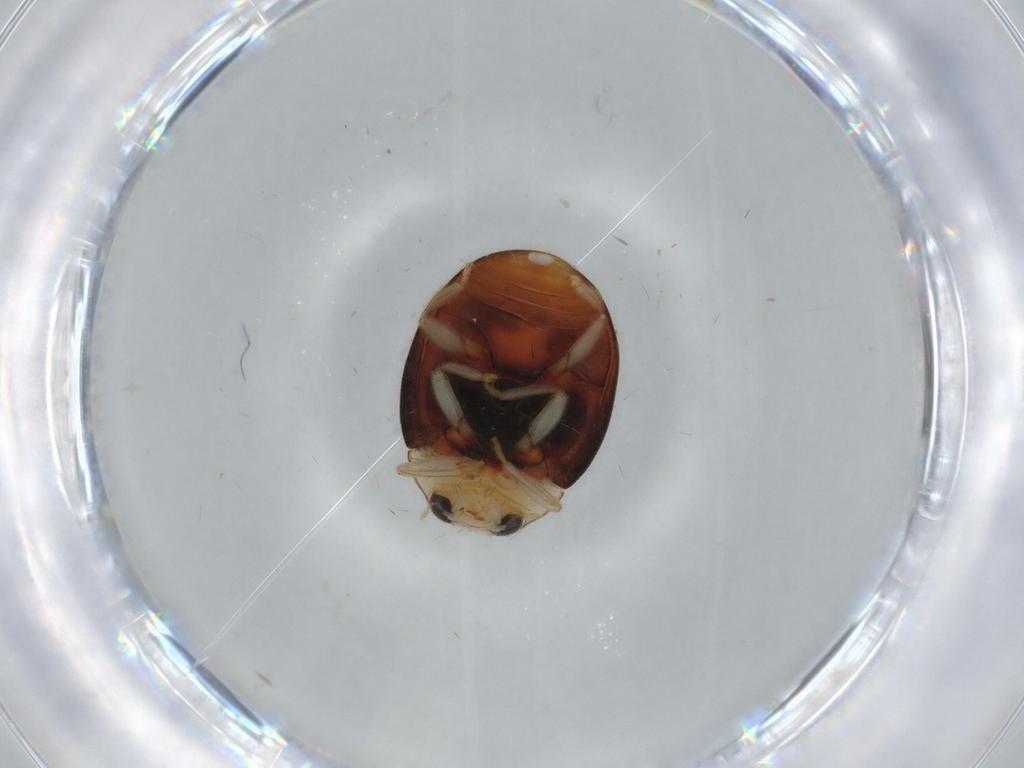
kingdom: Animalia
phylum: Arthropoda
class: Insecta
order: Coleoptera
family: Coccinellidae
